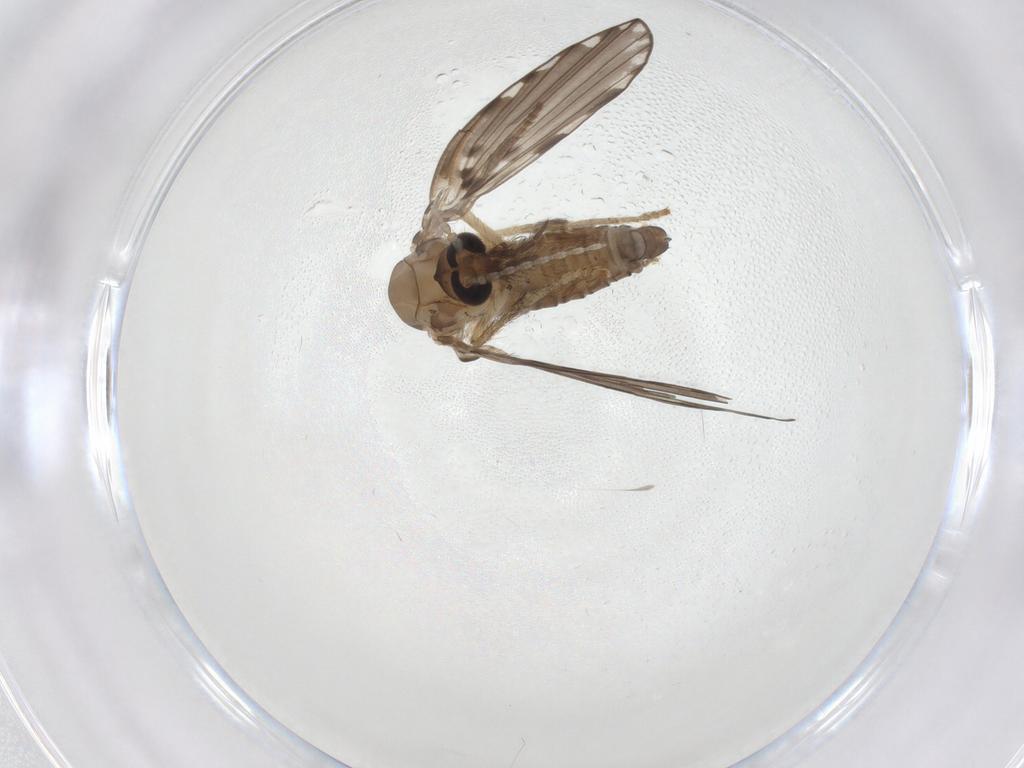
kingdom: Animalia
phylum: Arthropoda
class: Insecta
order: Diptera
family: Psychodidae
